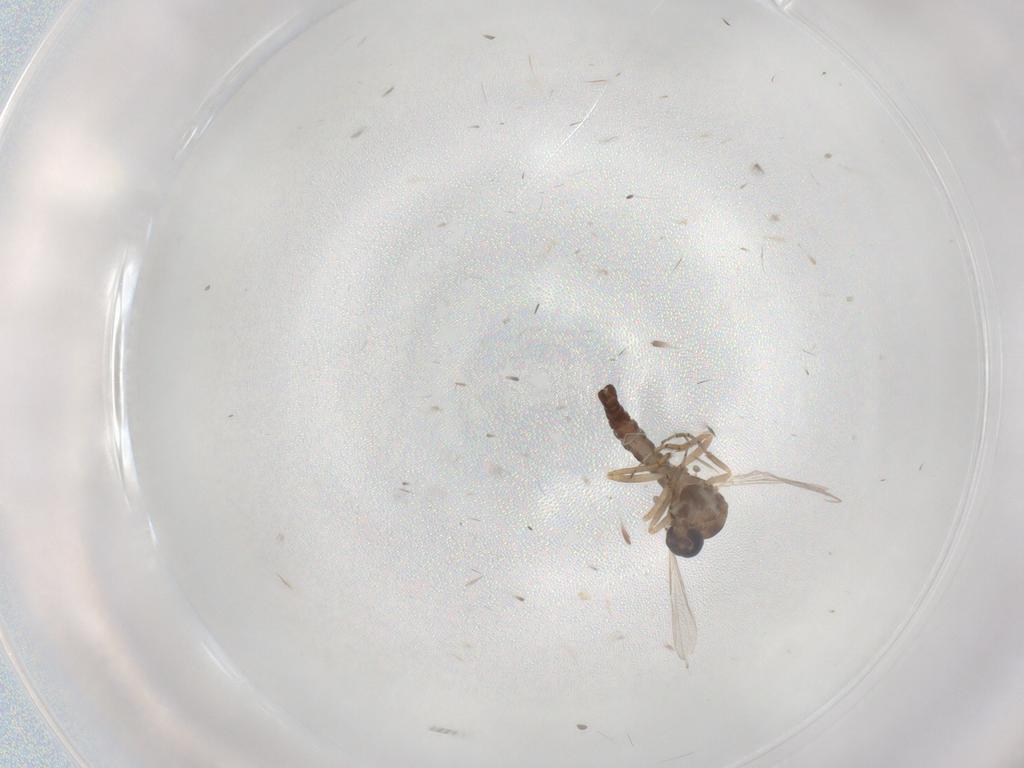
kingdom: Animalia
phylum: Arthropoda
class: Insecta
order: Diptera
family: Ceratopogonidae
